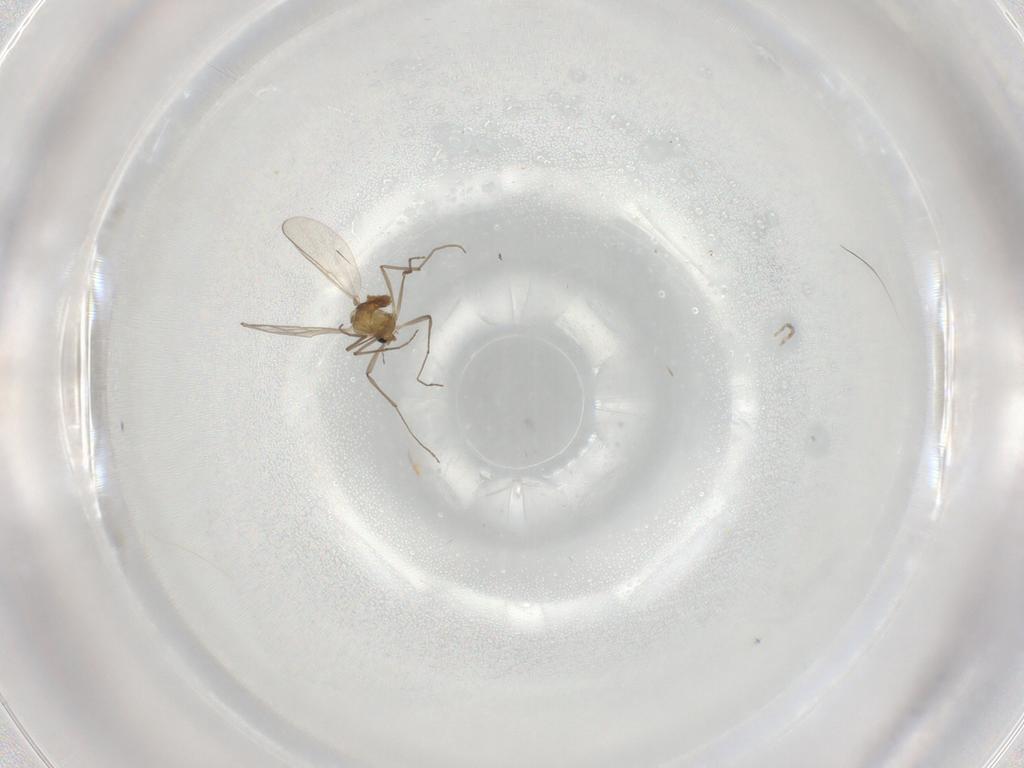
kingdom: Animalia
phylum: Arthropoda
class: Insecta
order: Diptera
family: Chironomidae
